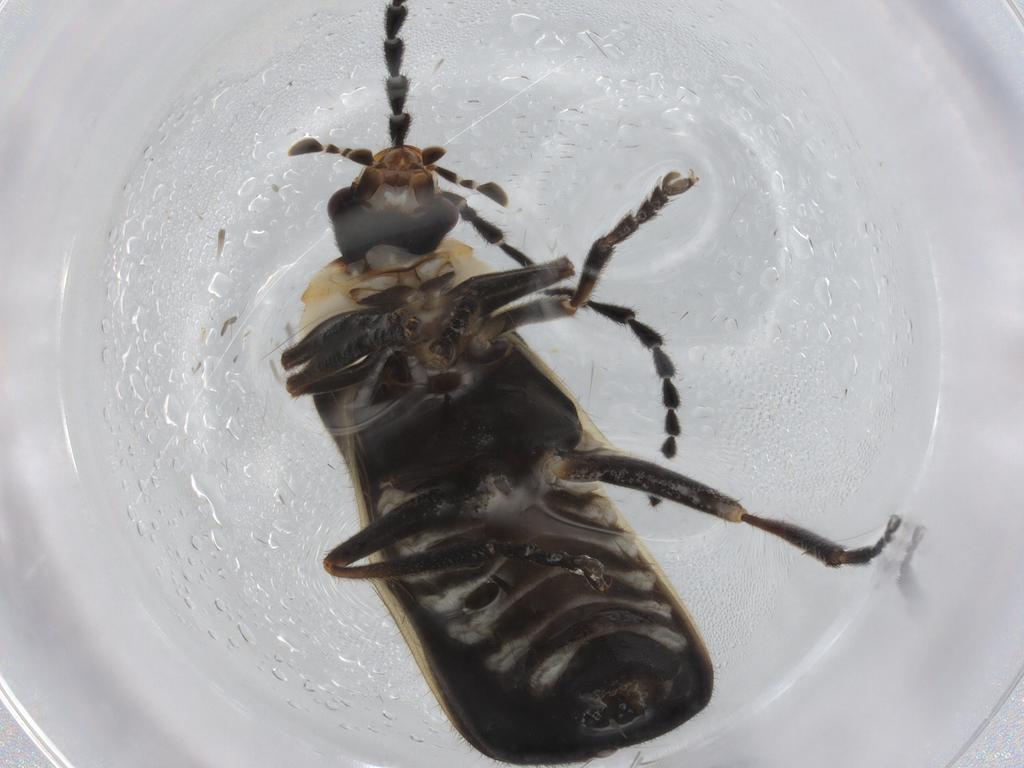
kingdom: Animalia
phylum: Arthropoda
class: Insecta
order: Coleoptera
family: Cantharidae
